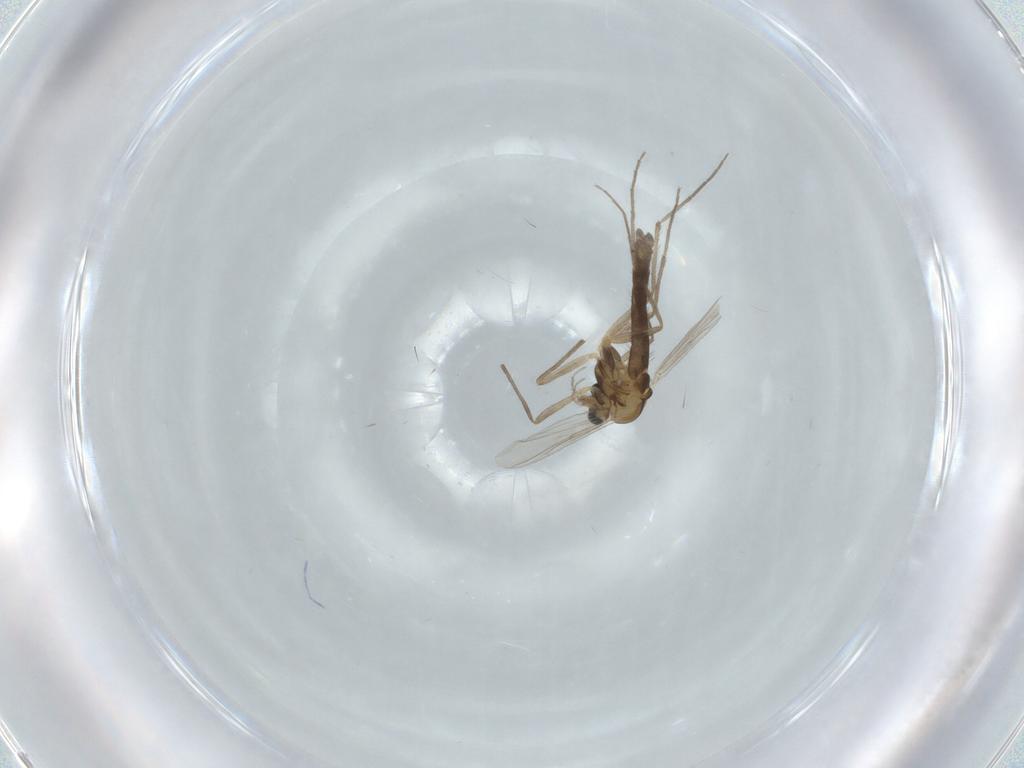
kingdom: Animalia
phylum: Arthropoda
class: Insecta
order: Diptera
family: Chironomidae
